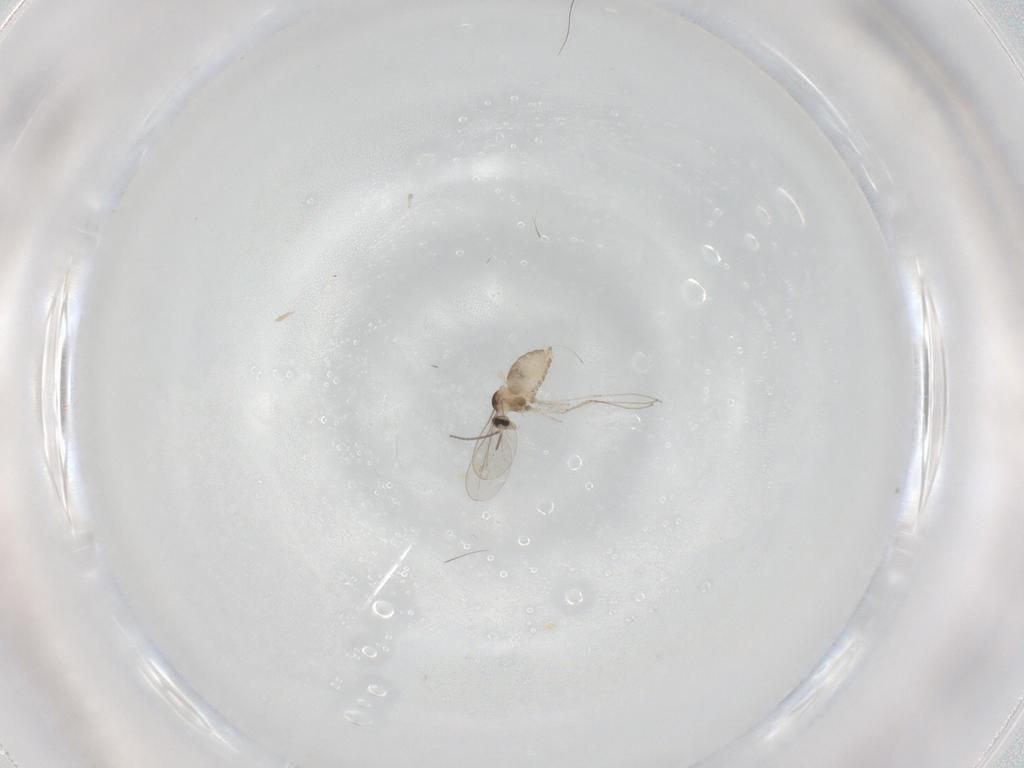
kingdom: Animalia
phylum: Arthropoda
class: Insecta
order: Diptera
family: Cecidomyiidae
